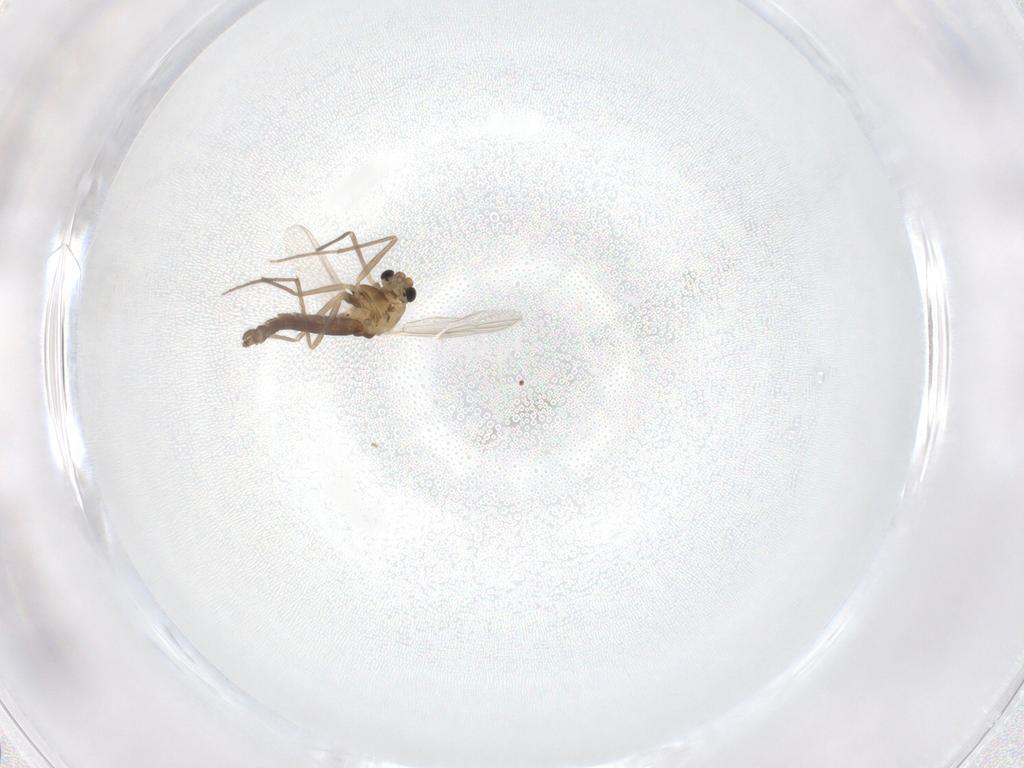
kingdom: Animalia
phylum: Arthropoda
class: Insecta
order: Diptera
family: Chironomidae
